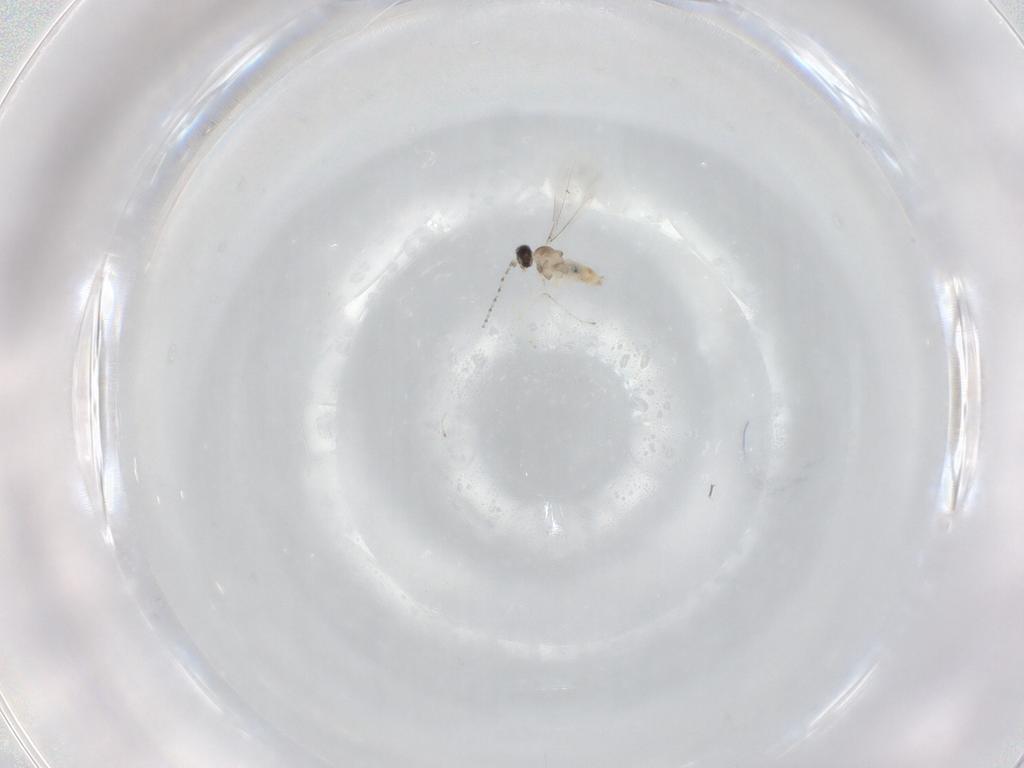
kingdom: Animalia
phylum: Arthropoda
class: Insecta
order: Diptera
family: Cecidomyiidae
